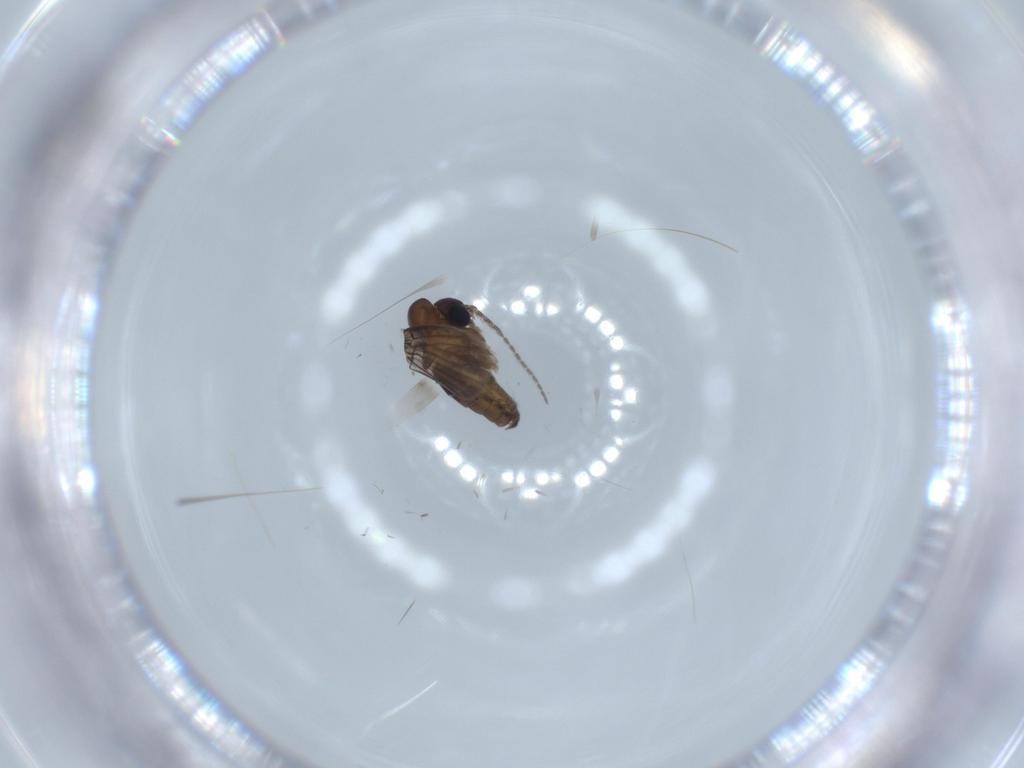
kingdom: Animalia
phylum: Arthropoda
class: Insecta
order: Diptera
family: Psychodidae
